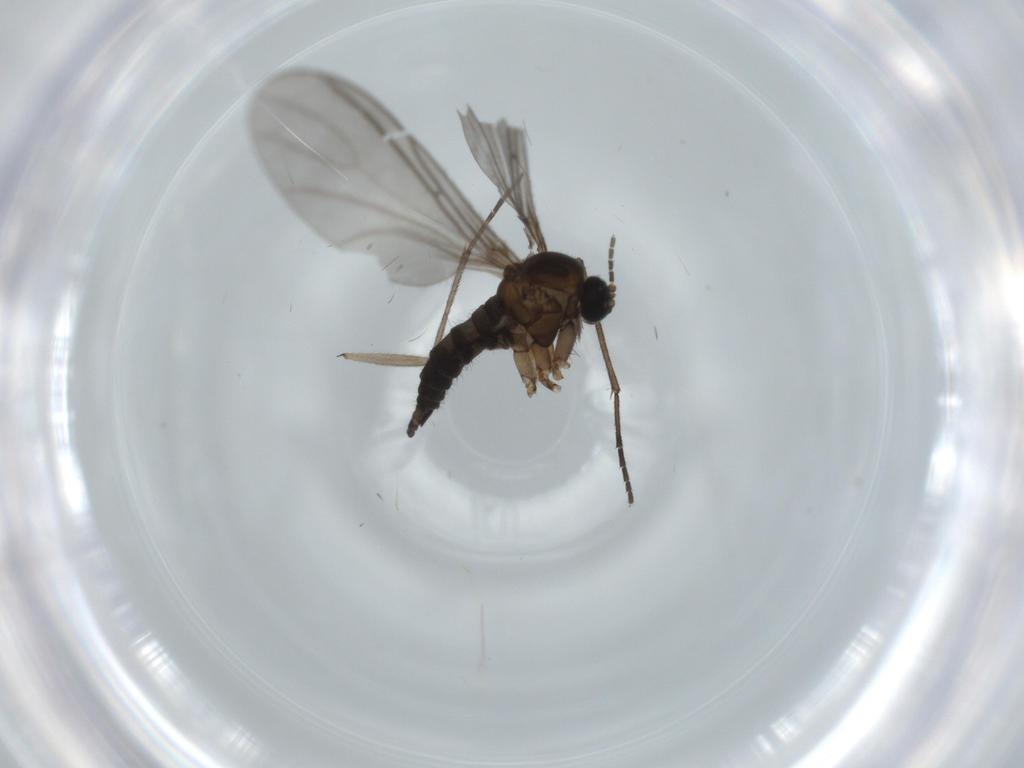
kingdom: Animalia
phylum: Arthropoda
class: Insecta
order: Diptera
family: Sciaridae
